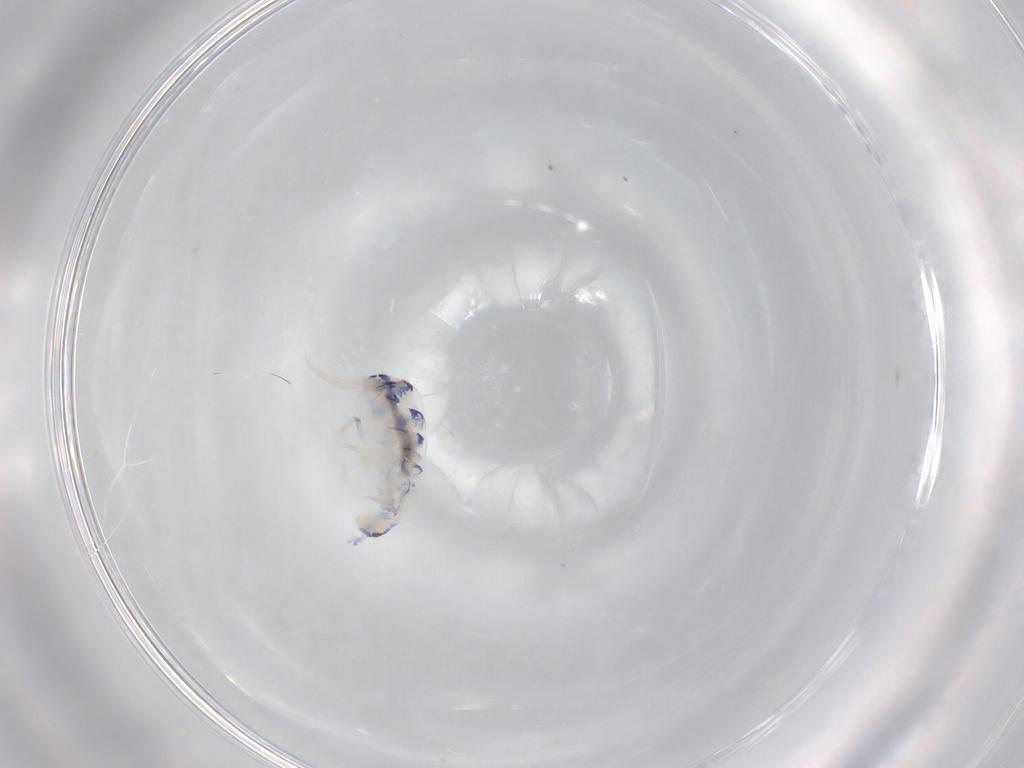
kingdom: Animalia
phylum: Arthropoda
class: Collembola
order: Entomobryomorpha
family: Entomobryidae
